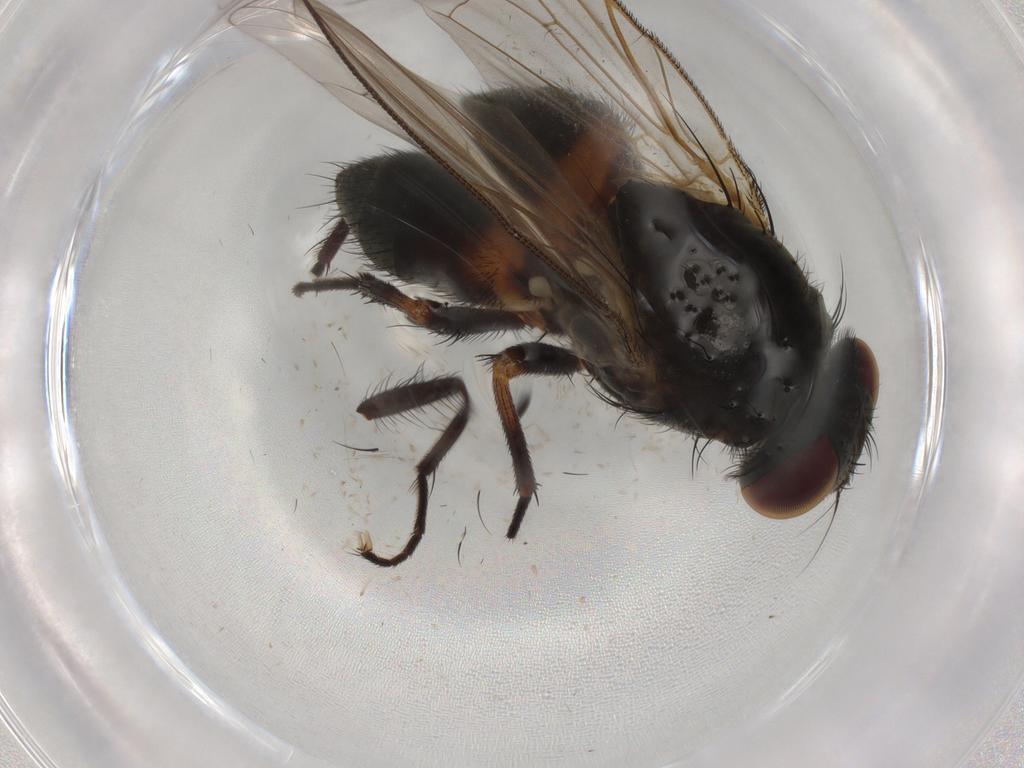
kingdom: Animalia
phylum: Arthropoda
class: Insecta
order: Diptera
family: Fannia
